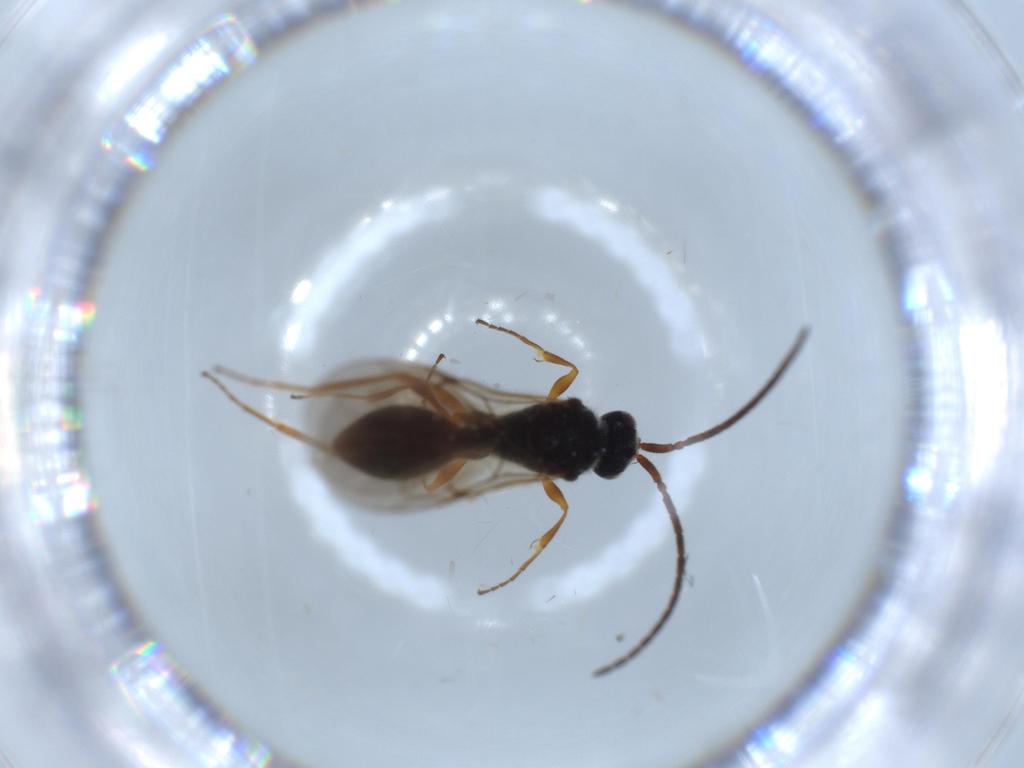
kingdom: Animalia
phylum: Arthropoda
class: Insecta
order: Hymenoptera
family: Diapriidae
